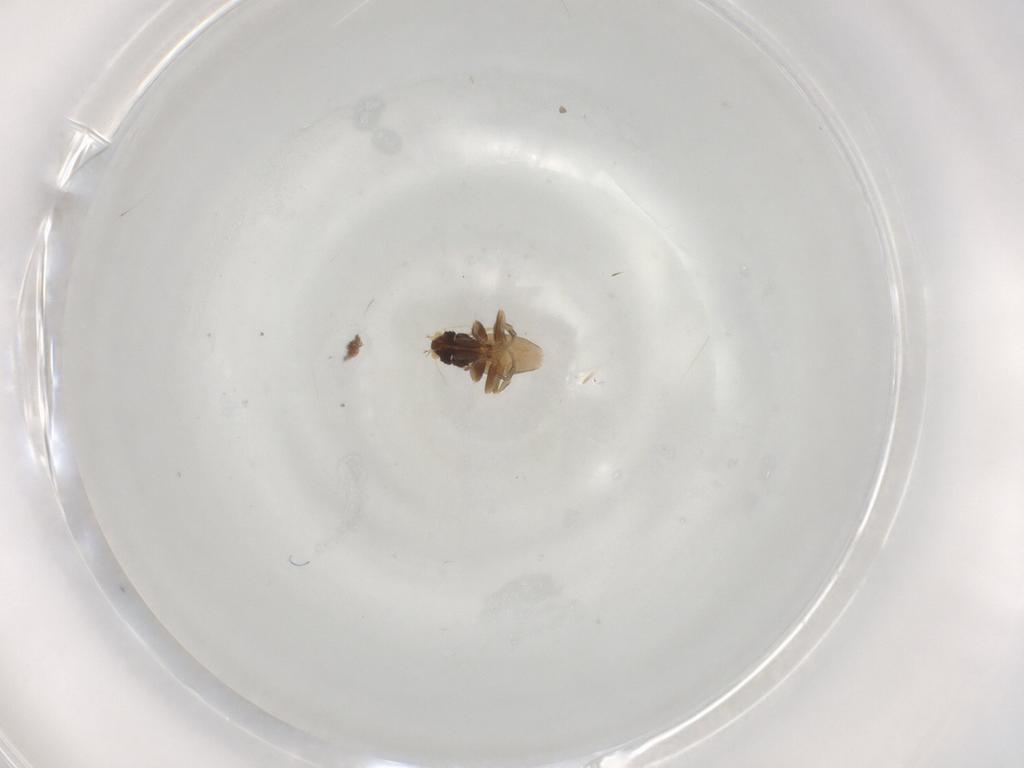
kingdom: Animalia
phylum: Arthropoda
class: Insecta
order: Diptera
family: Phoridae
